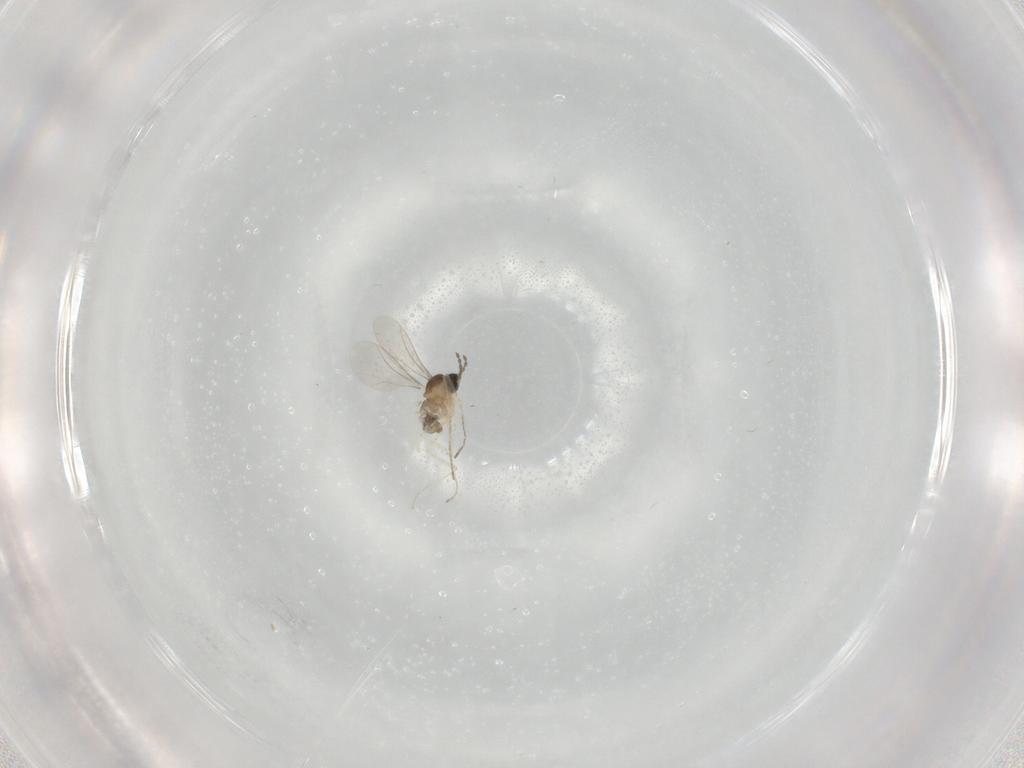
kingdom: Animalia
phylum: Arthropoda
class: Insecta
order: Diptera
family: Cecidomyiidae
